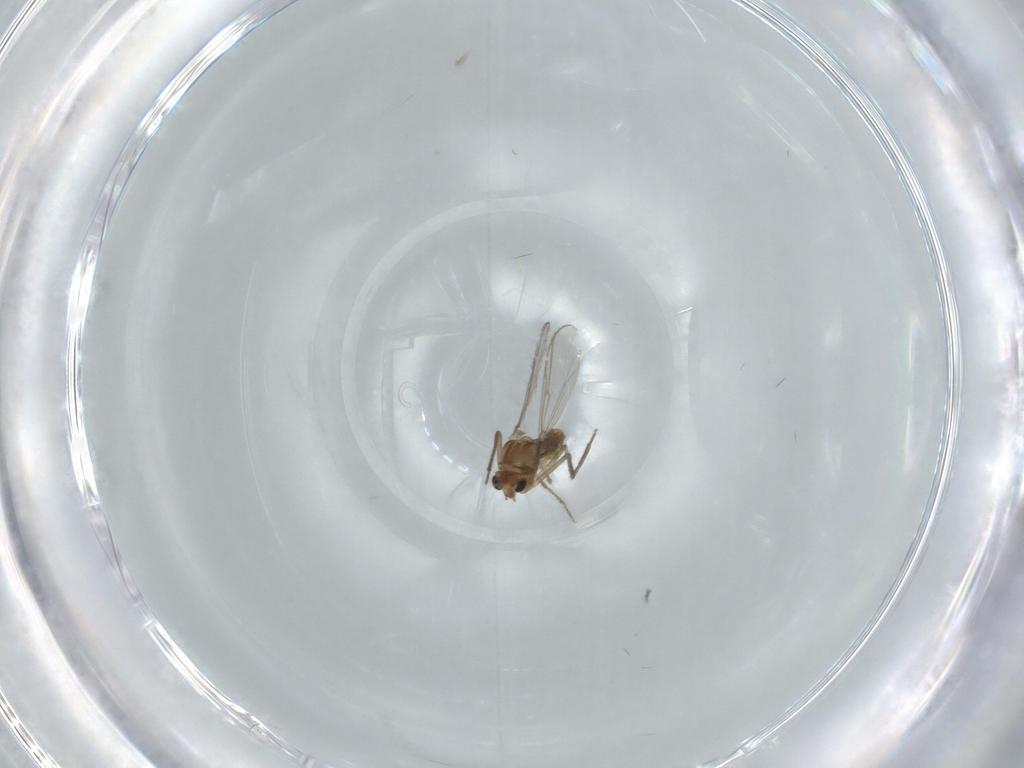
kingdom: Animalia
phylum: Arthropoda
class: Insecta
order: Diptera
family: Chironomidae
